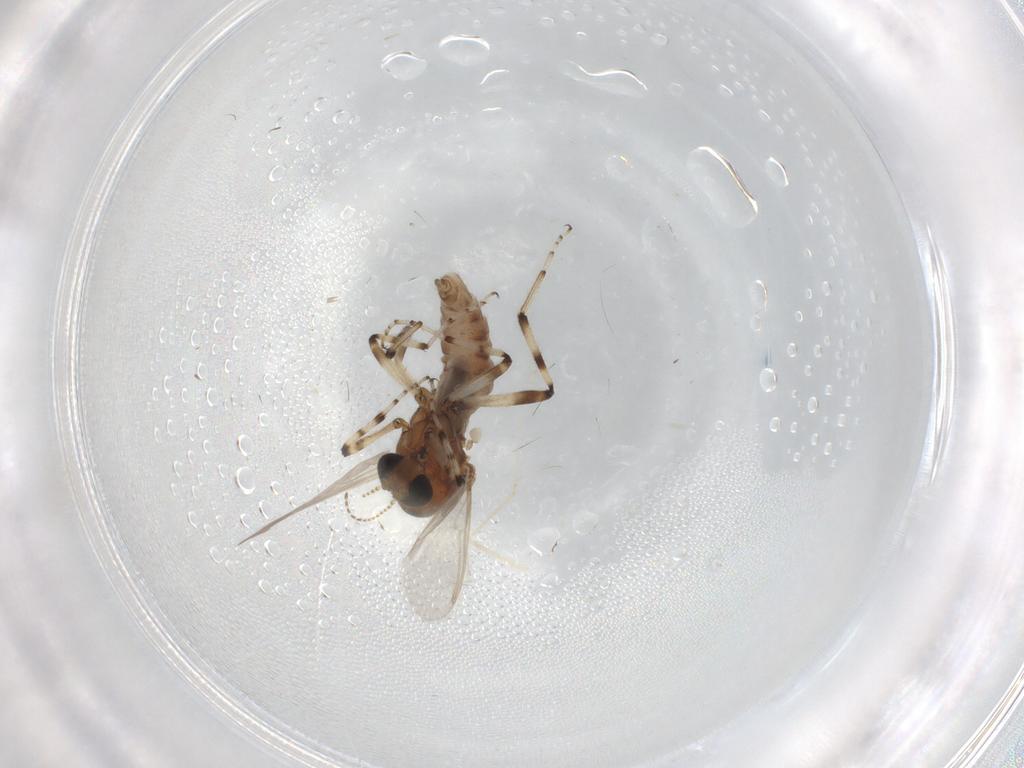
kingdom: Animalia
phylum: Arthropoda
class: Insecta
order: Diptera
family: Ceratopogonidae
